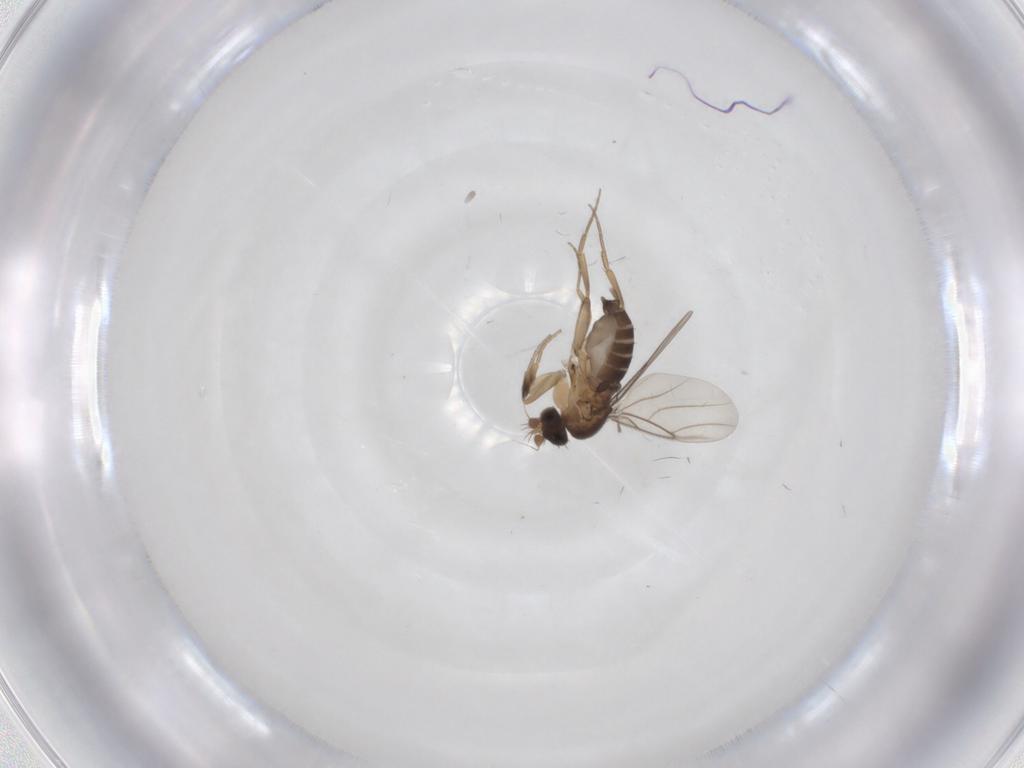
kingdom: Animalia
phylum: Arthropoda
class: Insecta
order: Diptera
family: Phoridae
